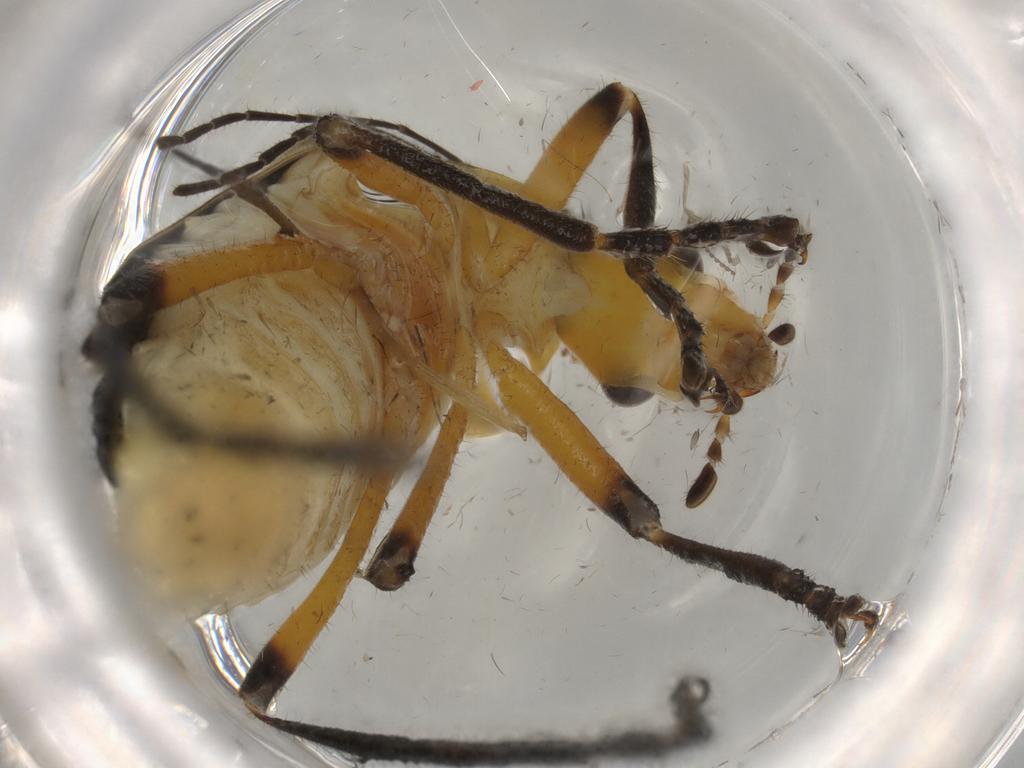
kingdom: Animalia
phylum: Arthropoda
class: Insecta
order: Coleoptera
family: Cantharidae
